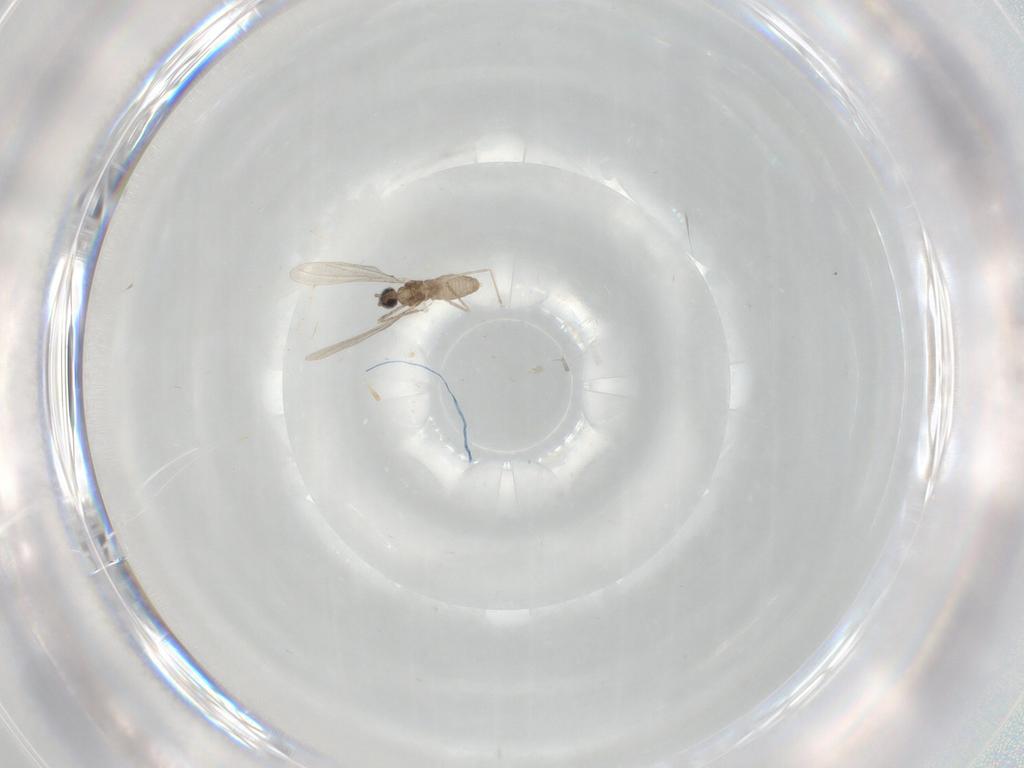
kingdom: Animalia
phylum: Arthropoda
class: Insecta
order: Diptera
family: Cecidomyiidae
